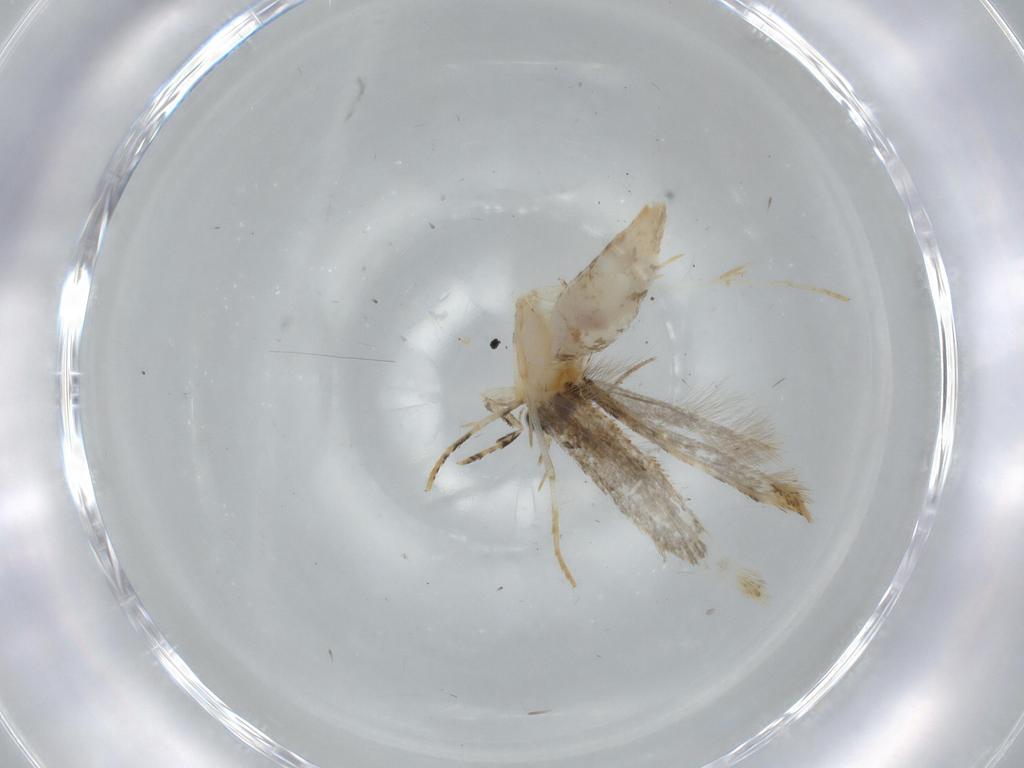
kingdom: Animalia
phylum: Arthropoda
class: Insecta
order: Lepidoptera
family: Tineidae
